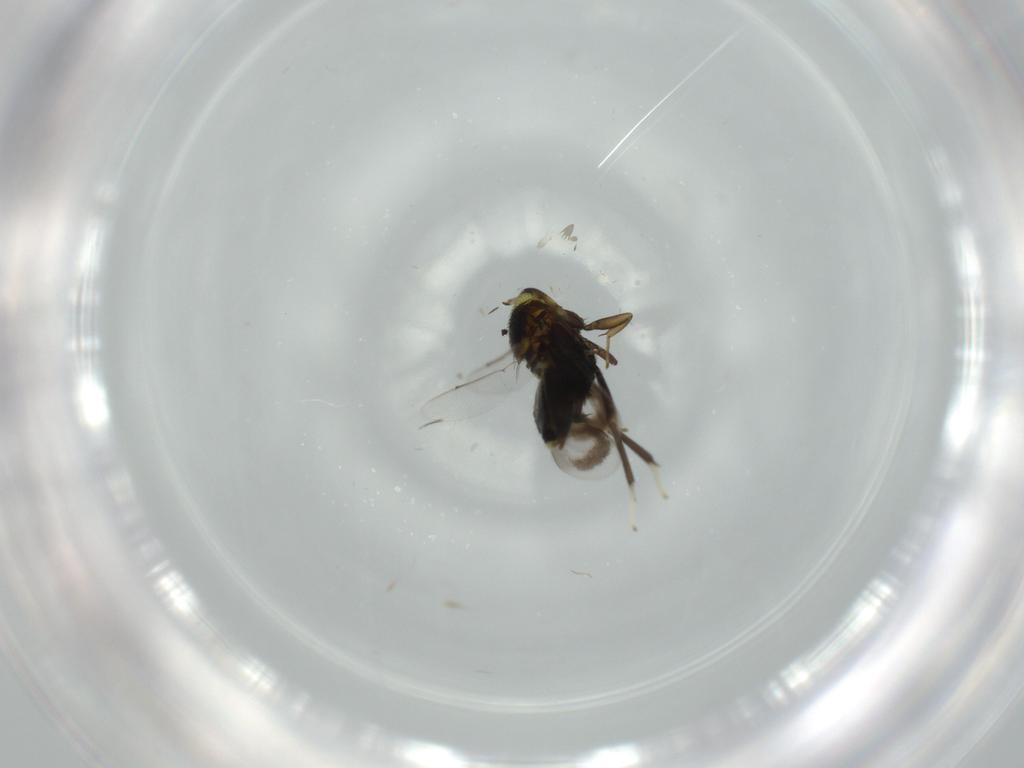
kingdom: Animalia
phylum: Arthropoda
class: Insecta
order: Hymenoptera
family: Aphelinidae
